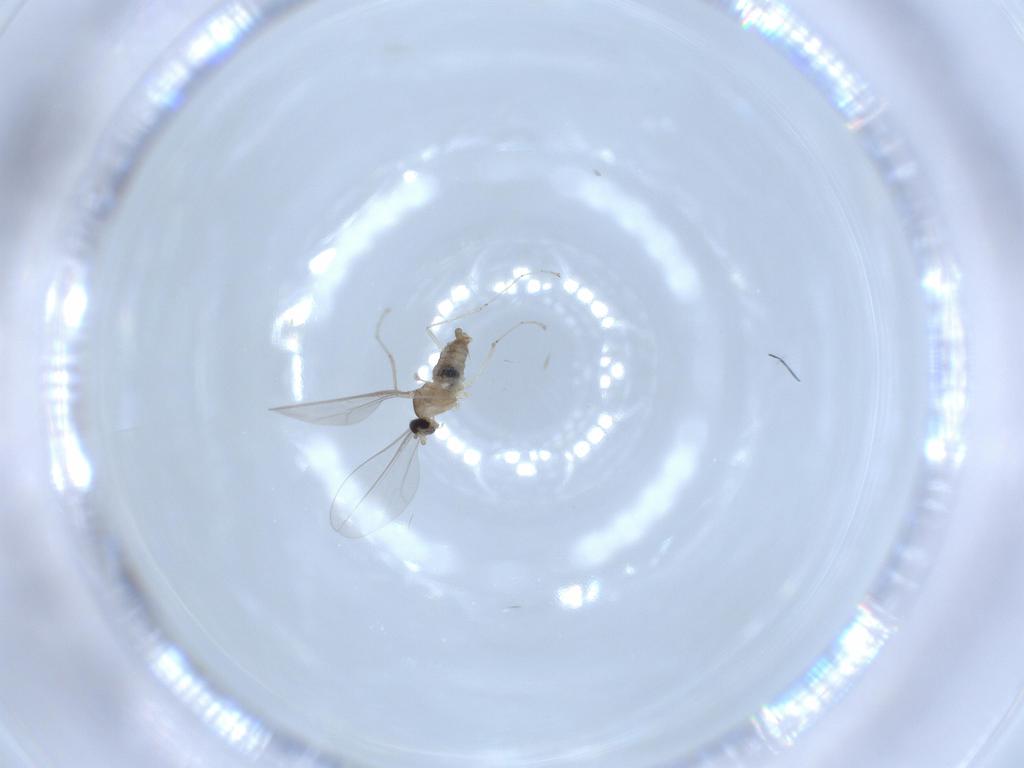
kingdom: Animalia
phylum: Arthropoda
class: Insecta
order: Diptera
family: Sciaridae
